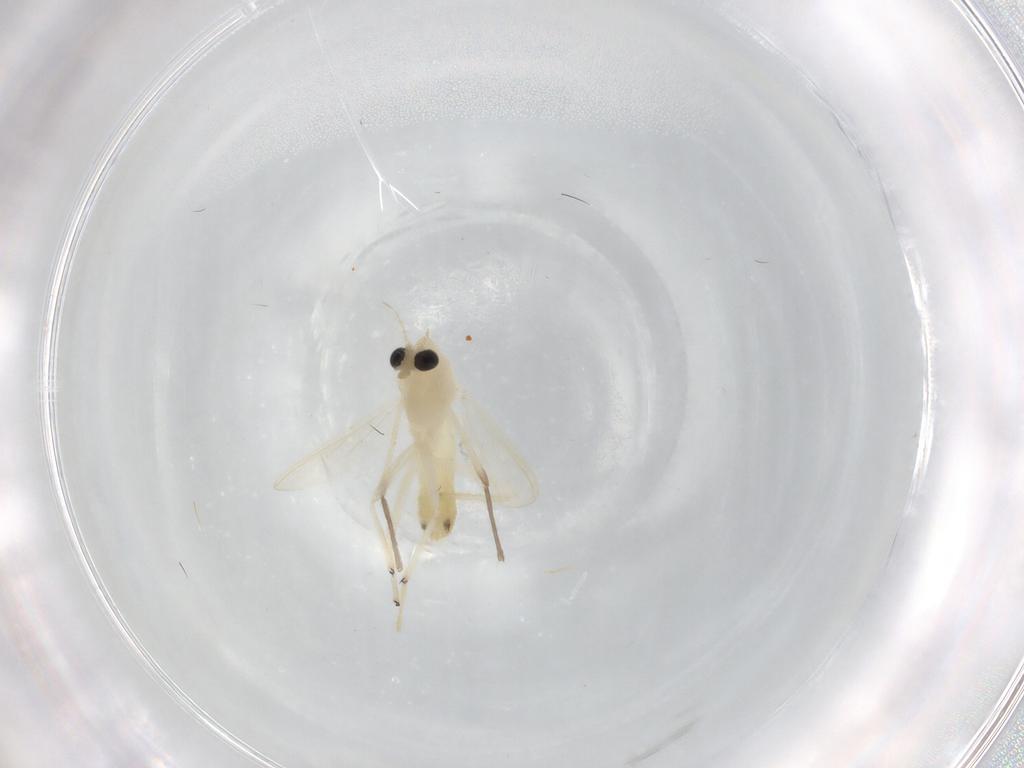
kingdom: Animalia
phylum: Arthropoda
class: Insecta
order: Diptera
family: Chironomidae
